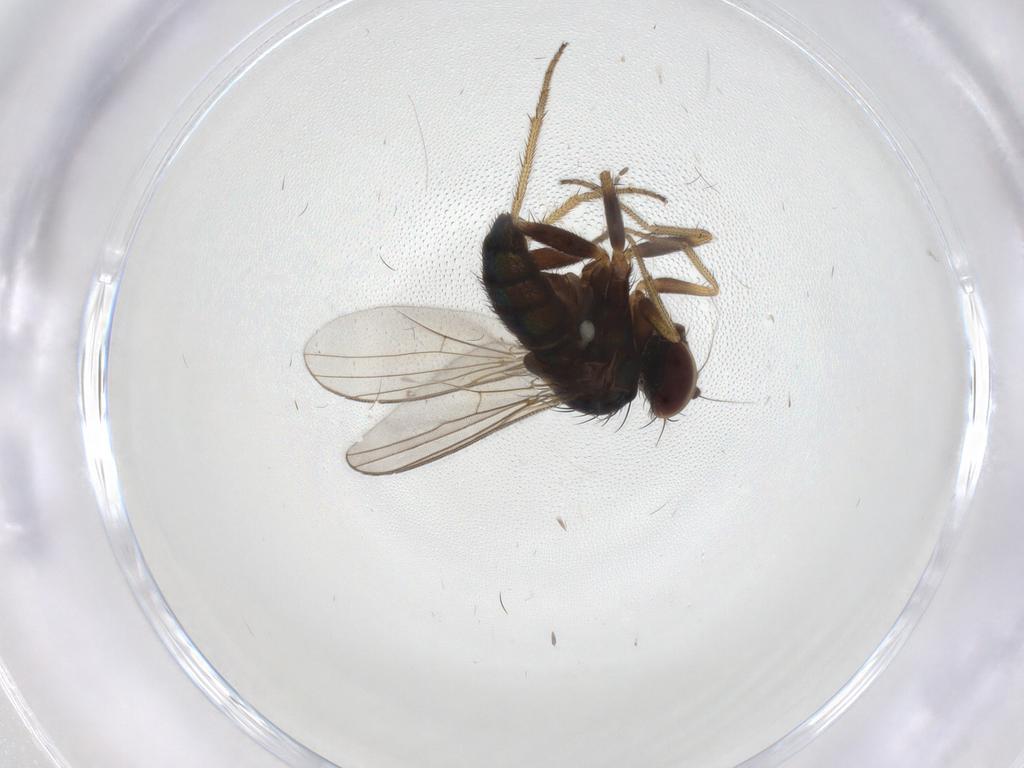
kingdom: Animalia
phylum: Arthropoda
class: Insecta
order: Diptera
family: Cecidomyiidae
